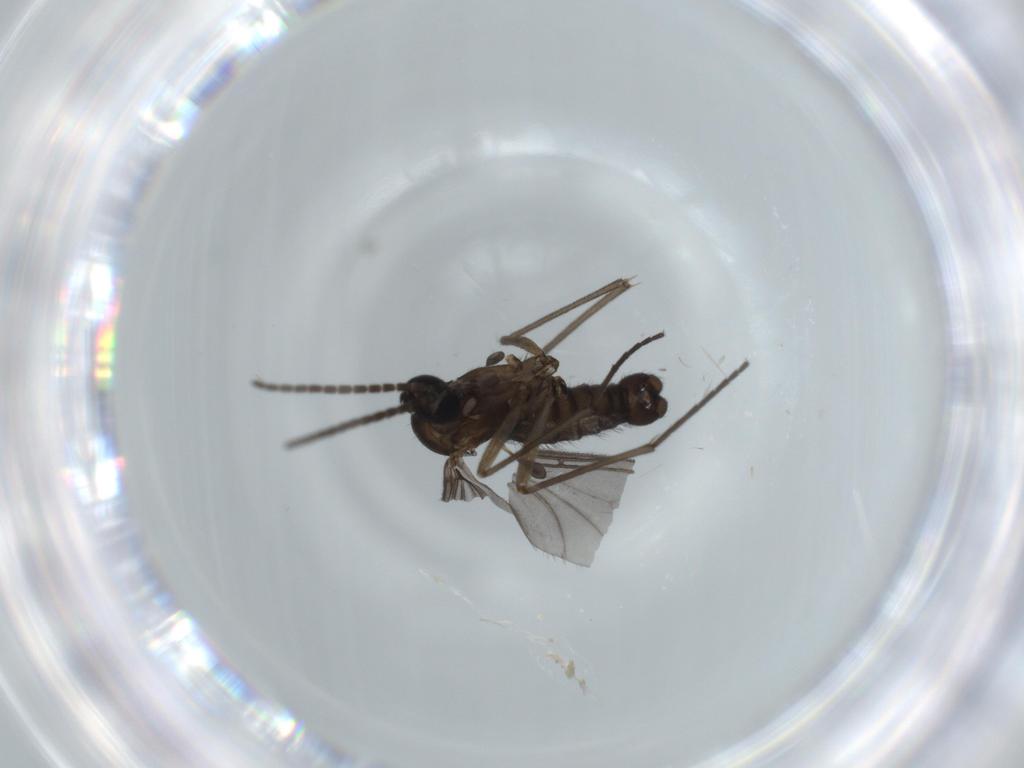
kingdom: Animalia
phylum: Arthropoda
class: Insecta
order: Diptera
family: Sciaridae
